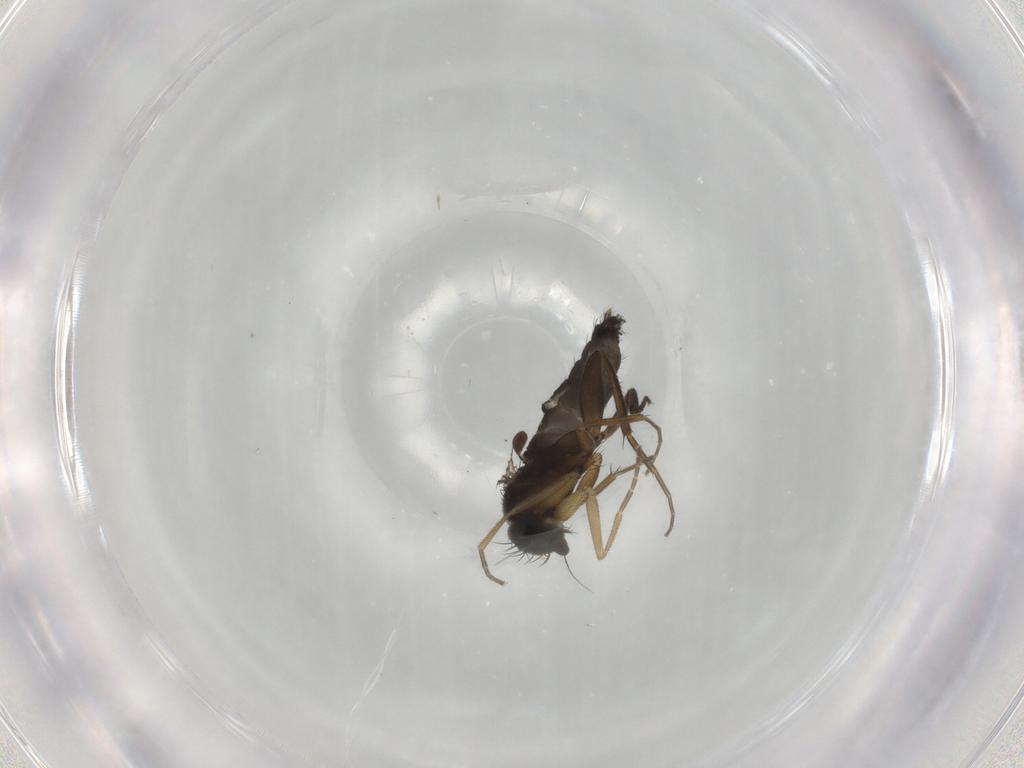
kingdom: Animalia
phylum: Arthropoda
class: Insecta
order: Diptera
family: Phoridae
